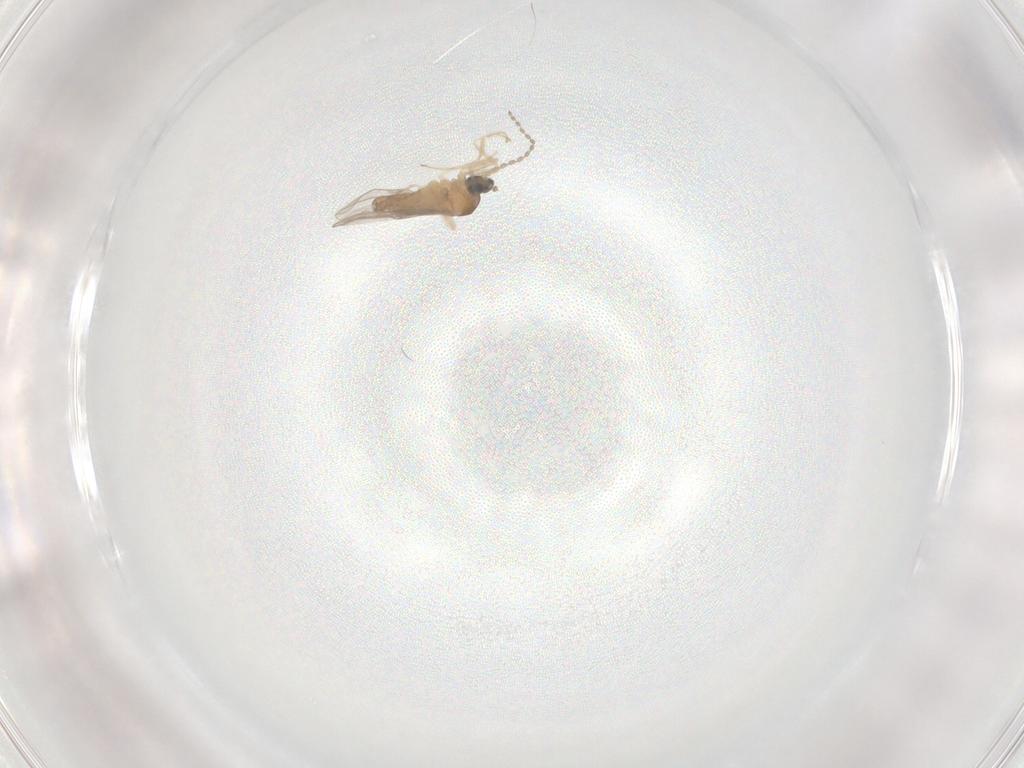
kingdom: Animalia
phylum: Arthropoda
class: Insecta
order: Diptera
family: Cecidomyiidae
